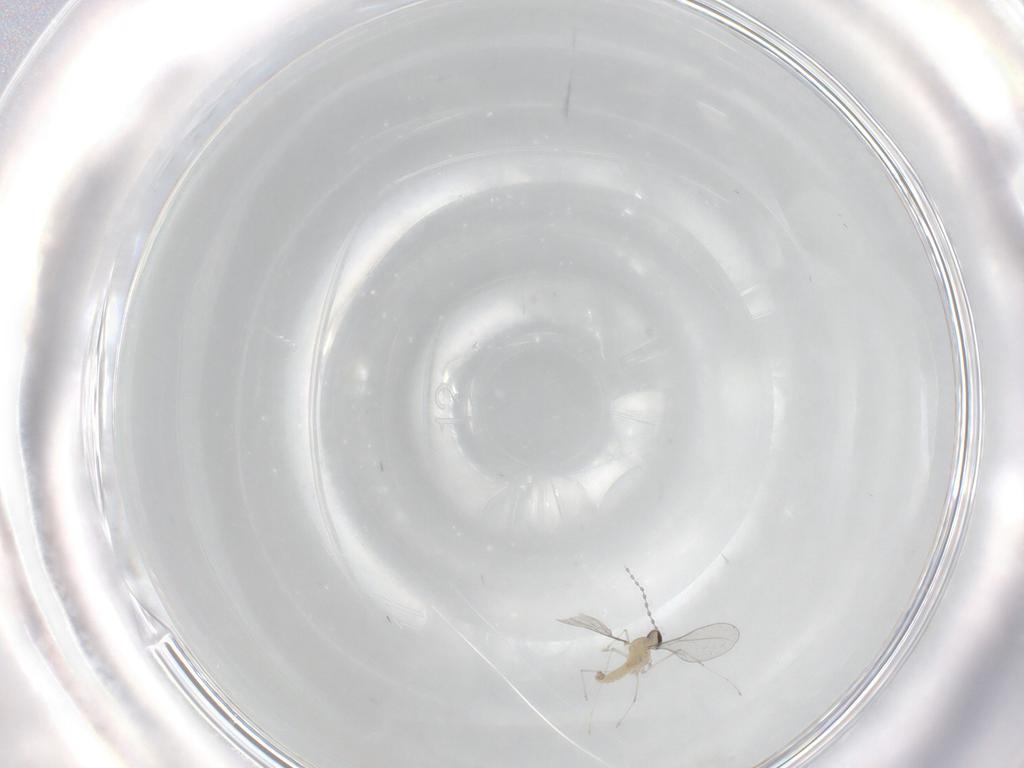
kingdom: Animalia
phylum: Arthropoda
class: Insecta
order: Diptera
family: Cecidomyiidae
